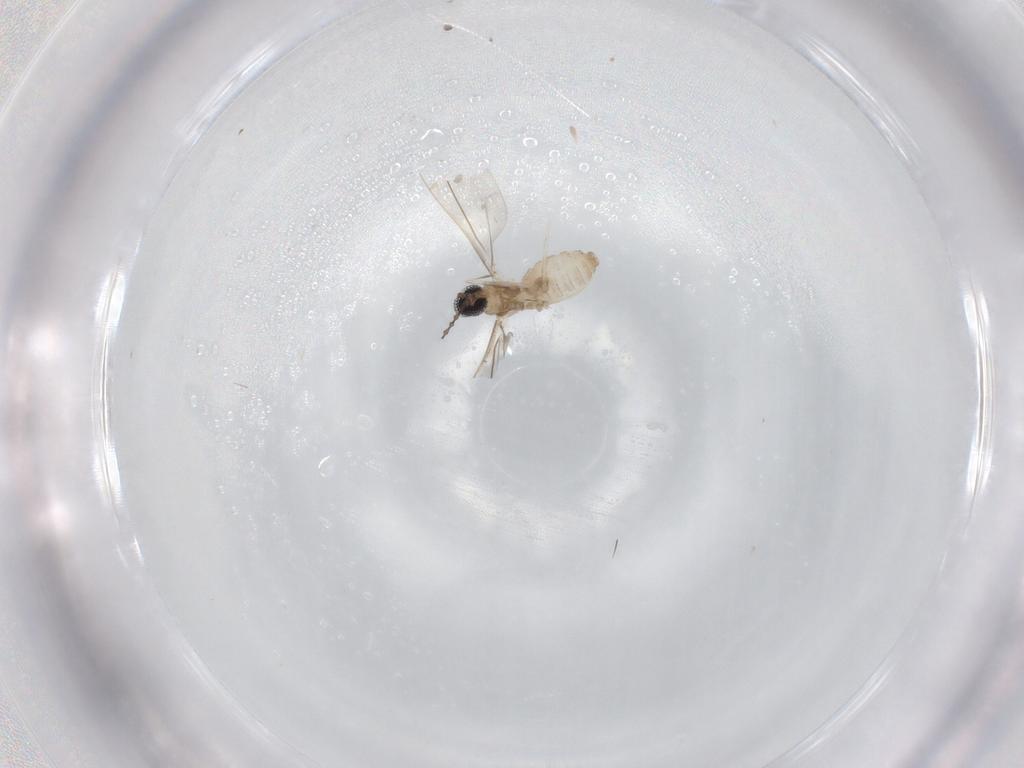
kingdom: Animalia
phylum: Arthropoda
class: Insecta
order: Diptera
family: Cecidomyiidae
